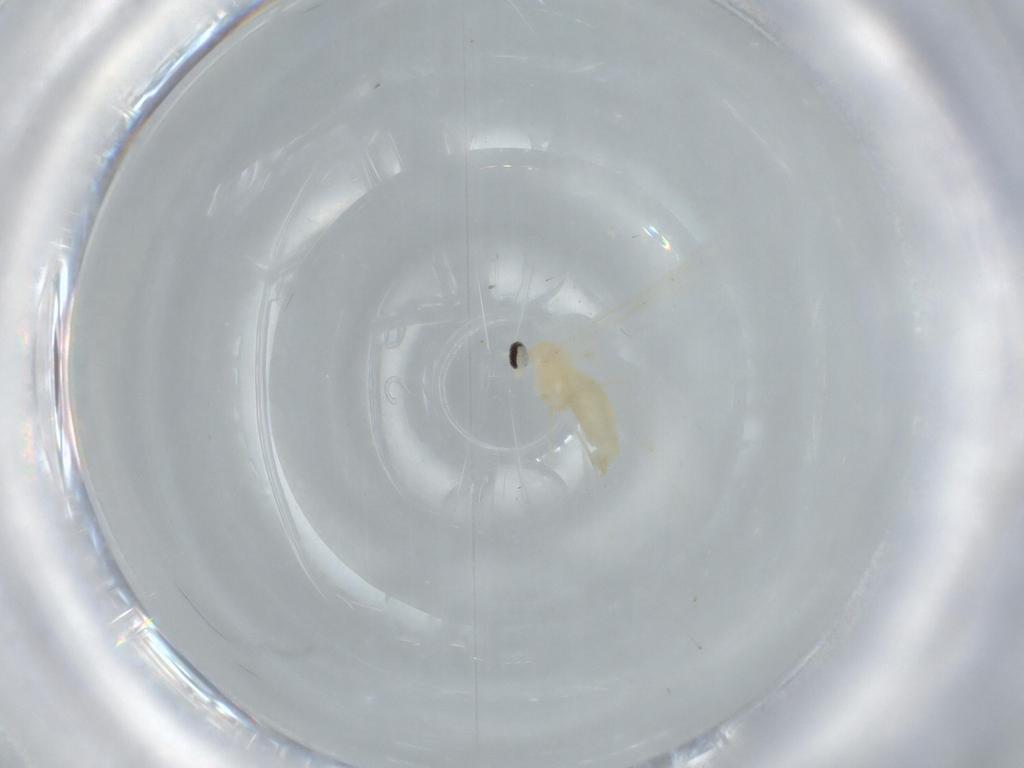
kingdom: Animalia
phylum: Arthropoda
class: Insecta
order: Diptera
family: Cecidomyiidae
